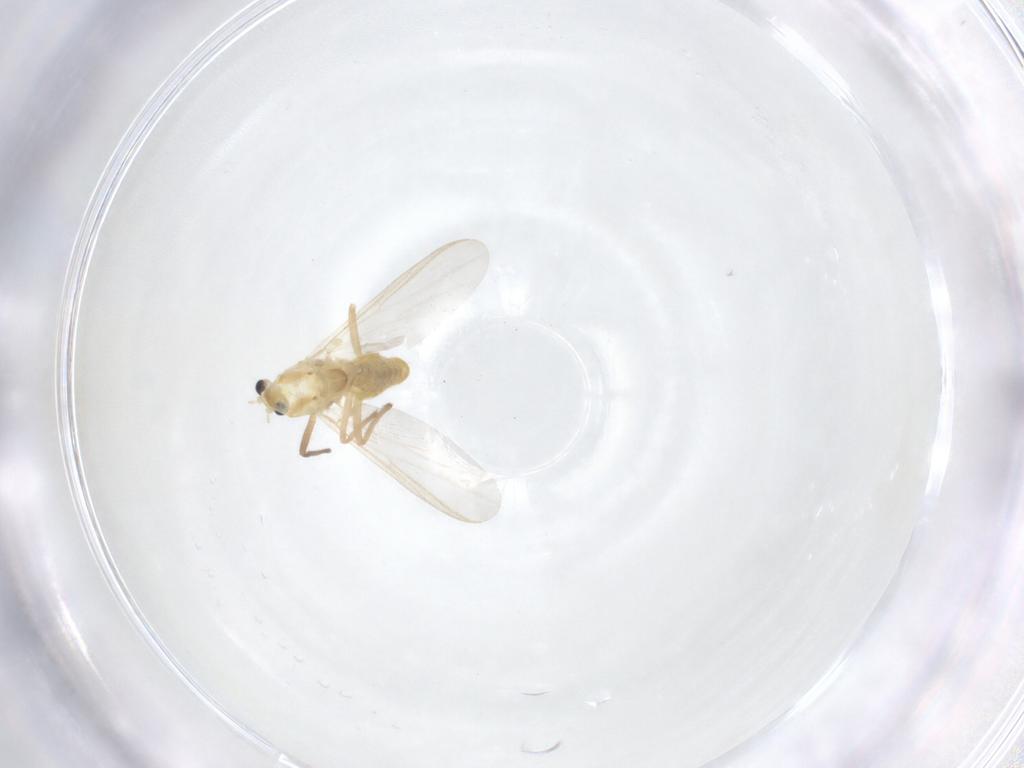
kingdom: Animalia
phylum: Arthropoda
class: Insecta
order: Diptera
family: Chironomidae
